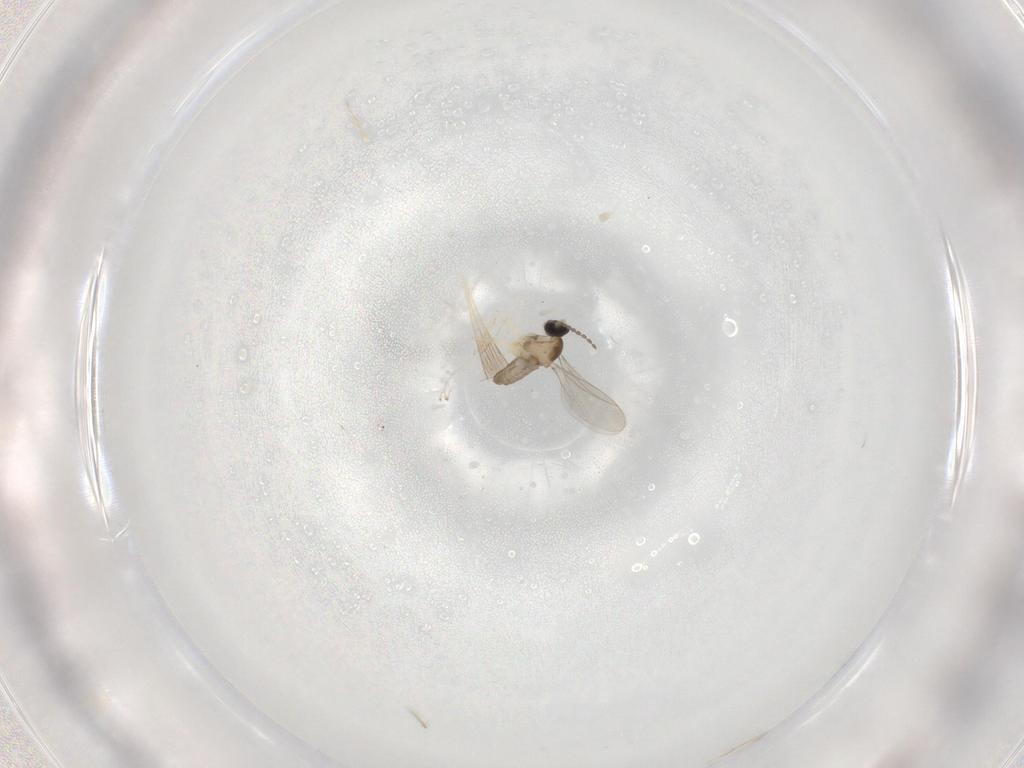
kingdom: Animalia
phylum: Arthropoda
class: Insecta
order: Diptera
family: Cecidomyiidae
